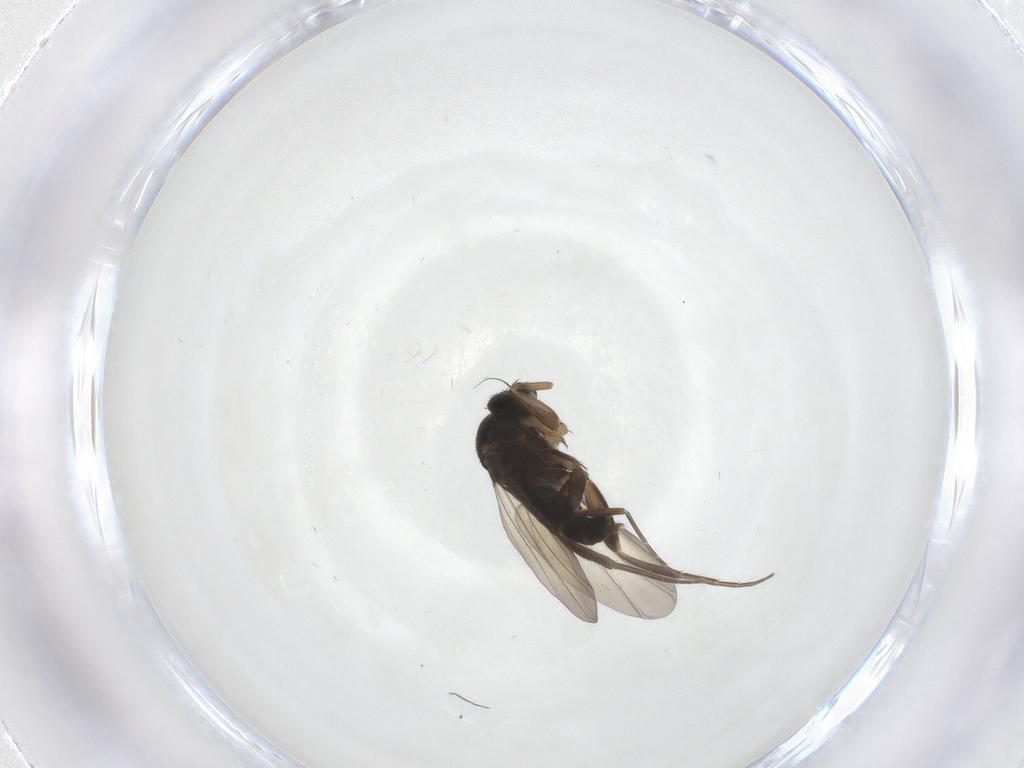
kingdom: Animalia
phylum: Arthropoda
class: Insecta
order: Diptera
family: Phoridae
